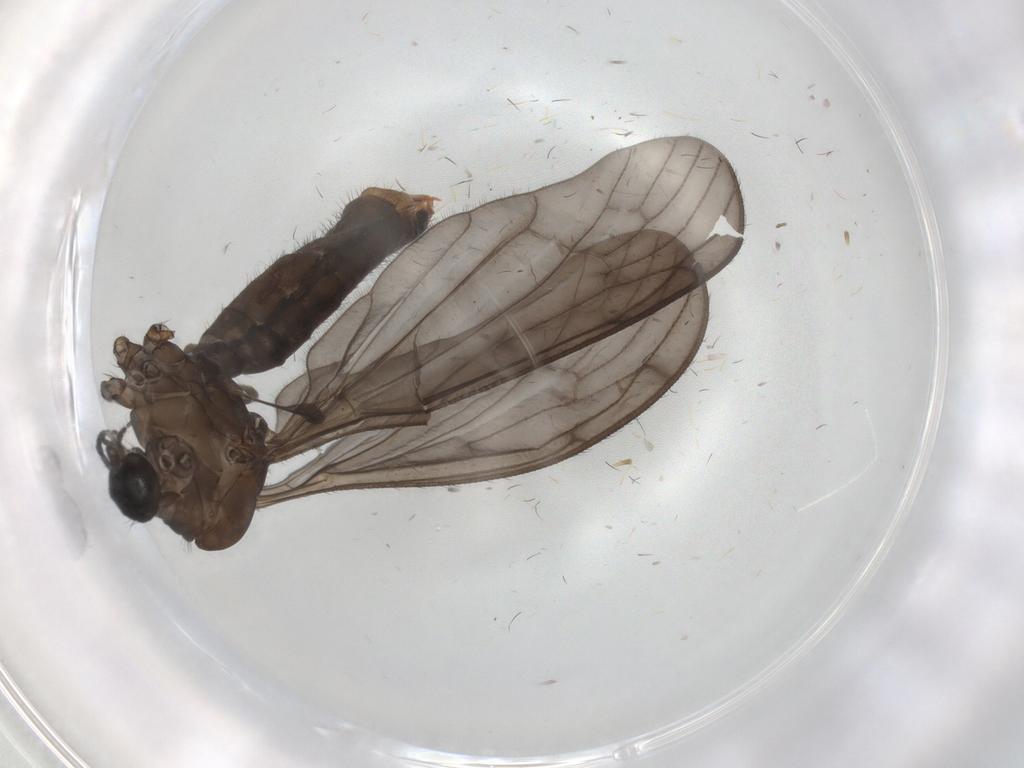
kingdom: Animalia
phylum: Arthropoda
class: Insecta
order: Diptera
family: Limoniidae
